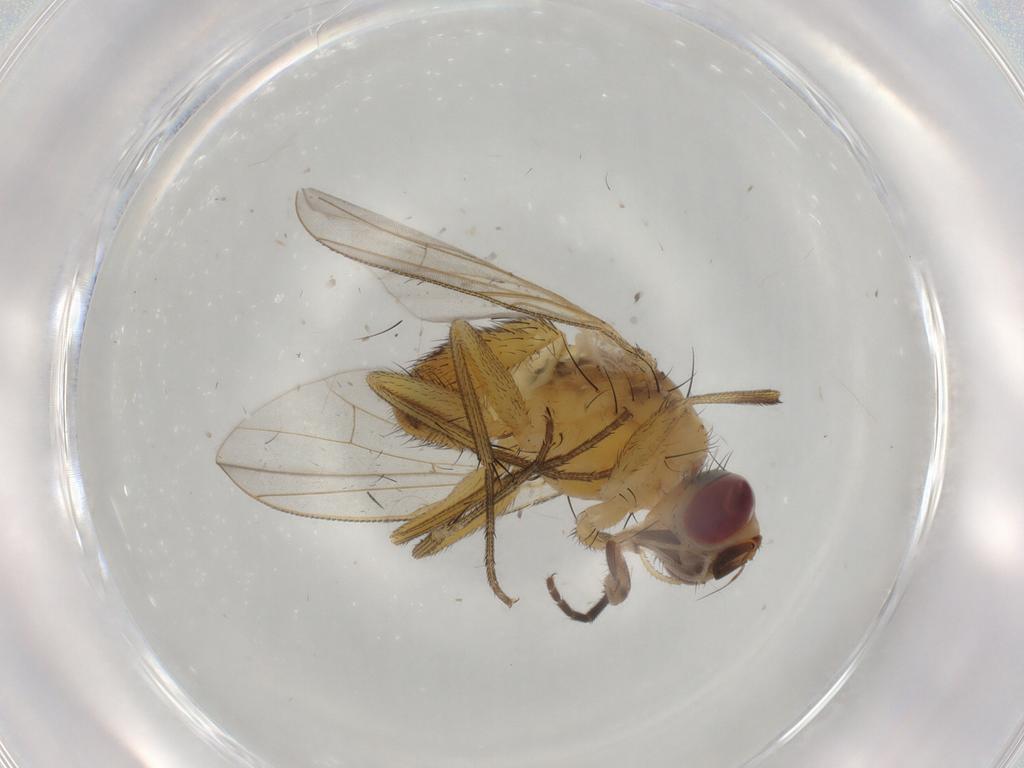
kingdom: Animalia
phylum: Arthropoda
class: Insecta
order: Diptera
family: Muscidae
